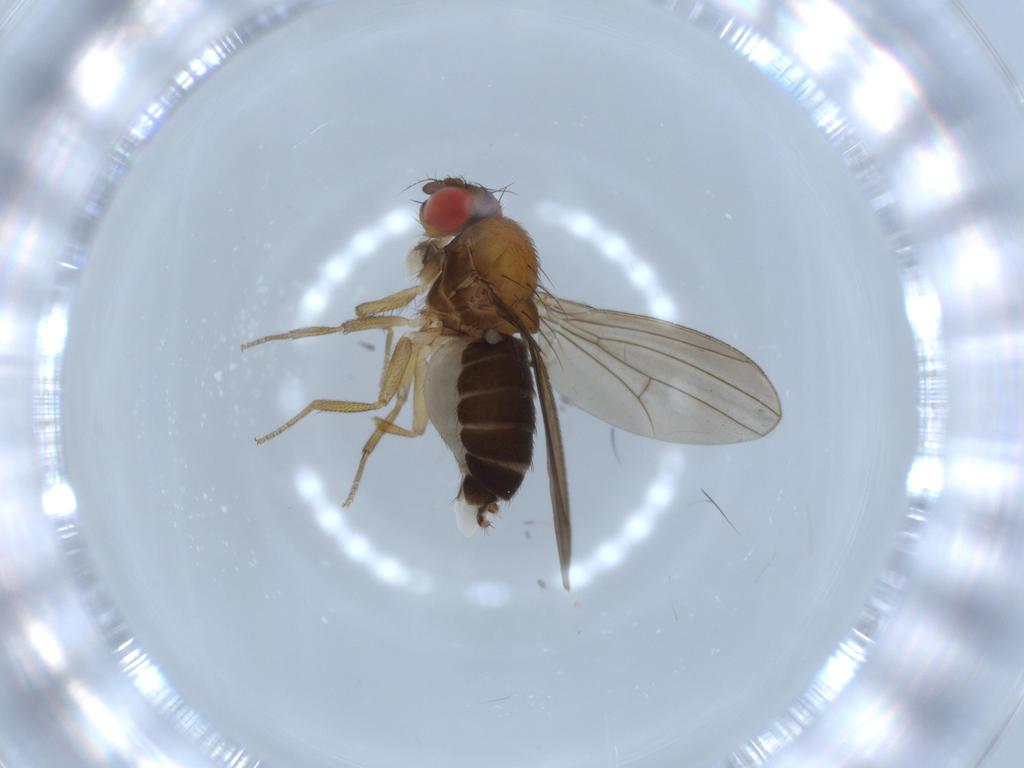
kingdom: Animalia
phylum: Arthropoda
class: Insecta
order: Diptera
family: Drosophilidae
